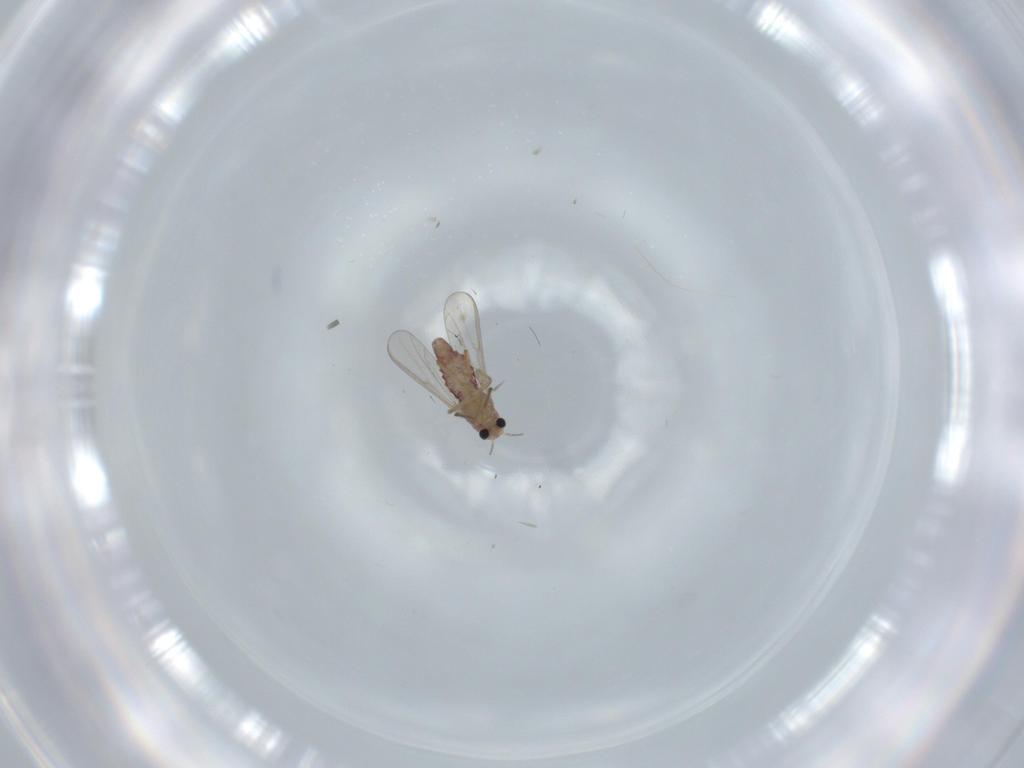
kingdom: Animalia
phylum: Arthropoda
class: Insecta
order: Diptera
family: Chironomidae
